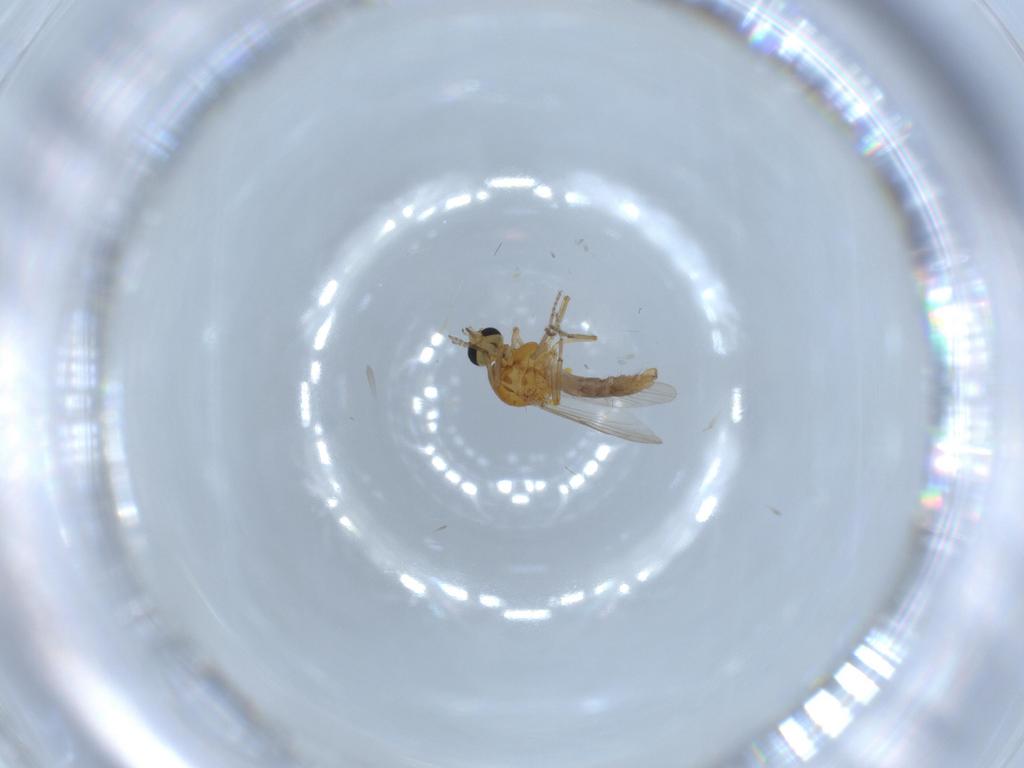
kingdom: Animalia
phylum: Arthropoda
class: Insecta
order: Diptera
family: Ceratopogonidae
